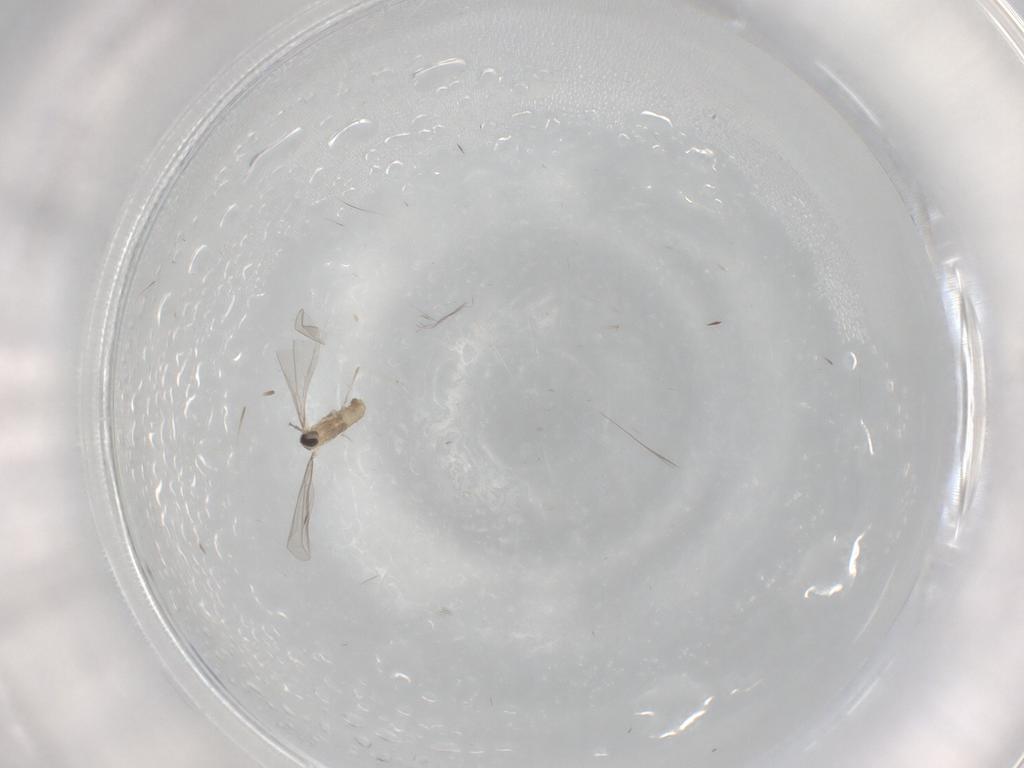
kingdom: Animalia
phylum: Arthropoda
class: Insecta
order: Diptera
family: Cecidomyiidae
